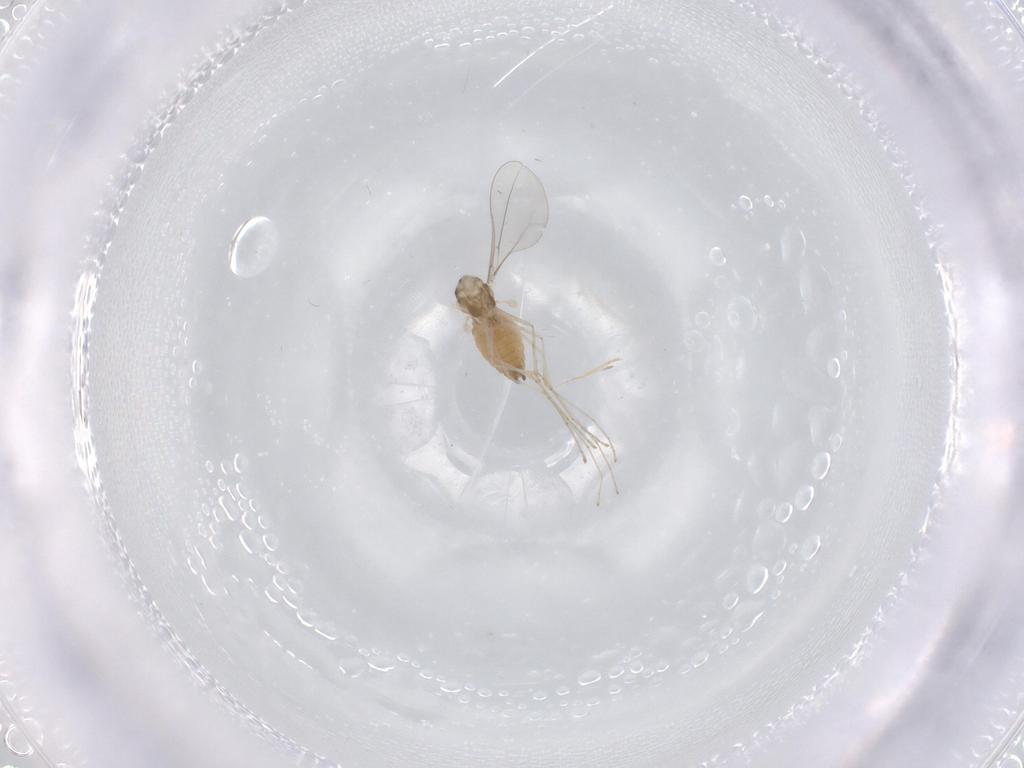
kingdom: Animalia
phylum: Arthropoda
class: Insecta
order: Diptera
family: Cecidomyiidae
